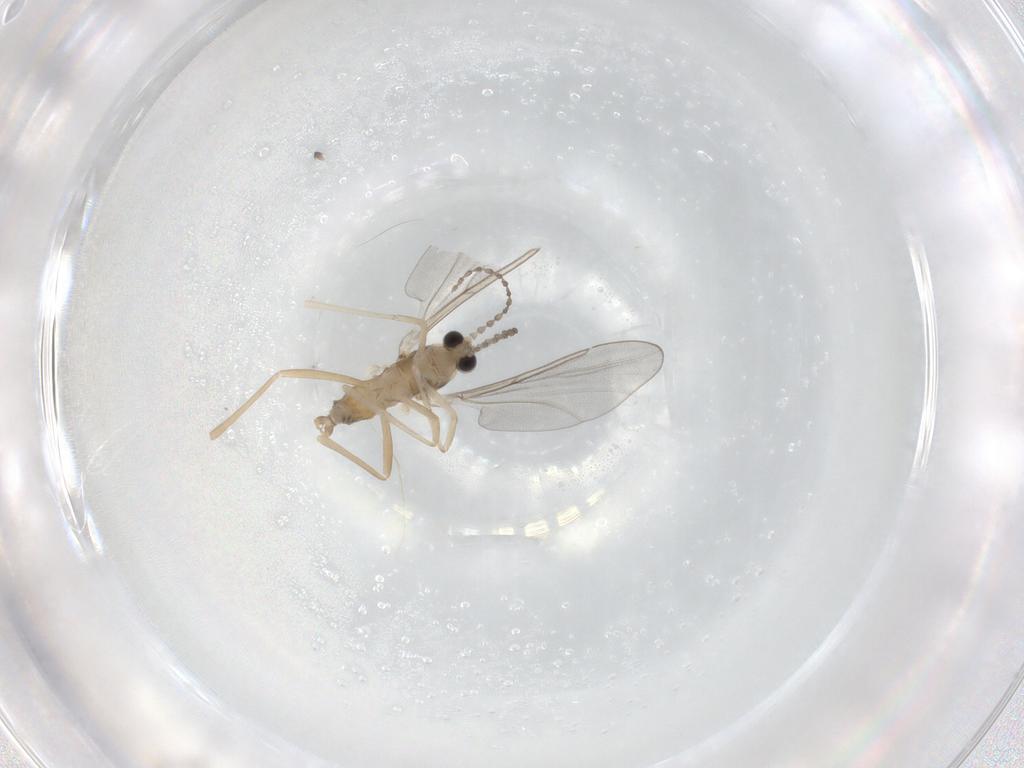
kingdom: Animalia
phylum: Arthropoda
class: Insecta
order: Diptera
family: Cecidomyiidae
